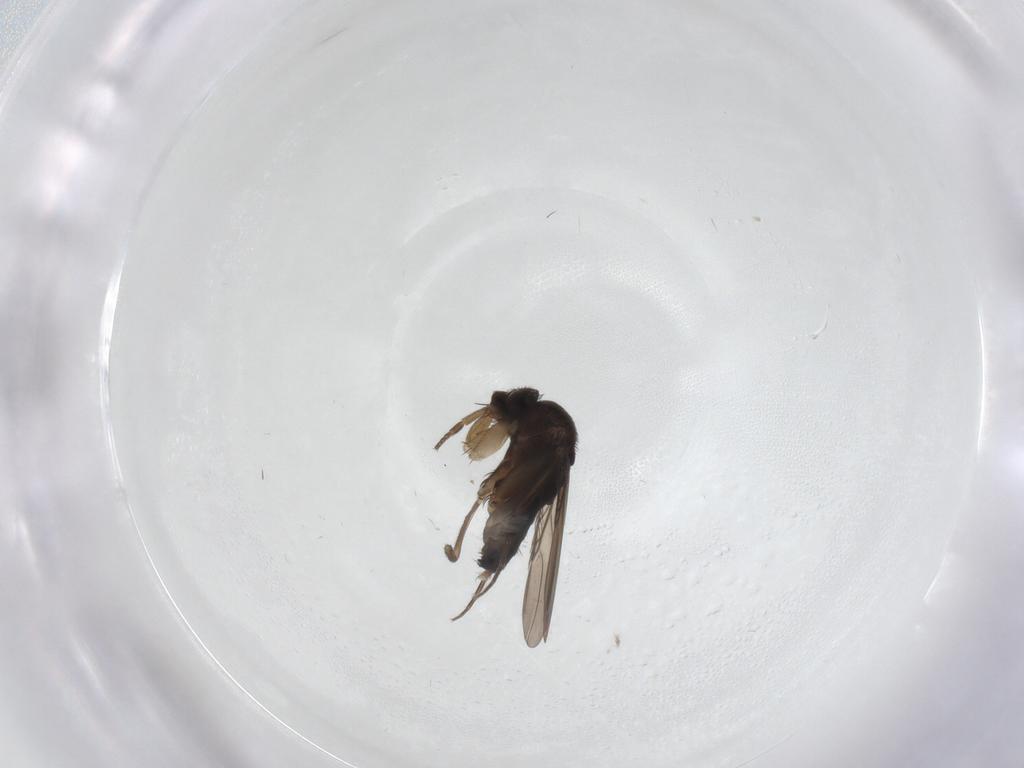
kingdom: Animalia
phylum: Arthropoda
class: Insecta
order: Diptera
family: Phoridae
